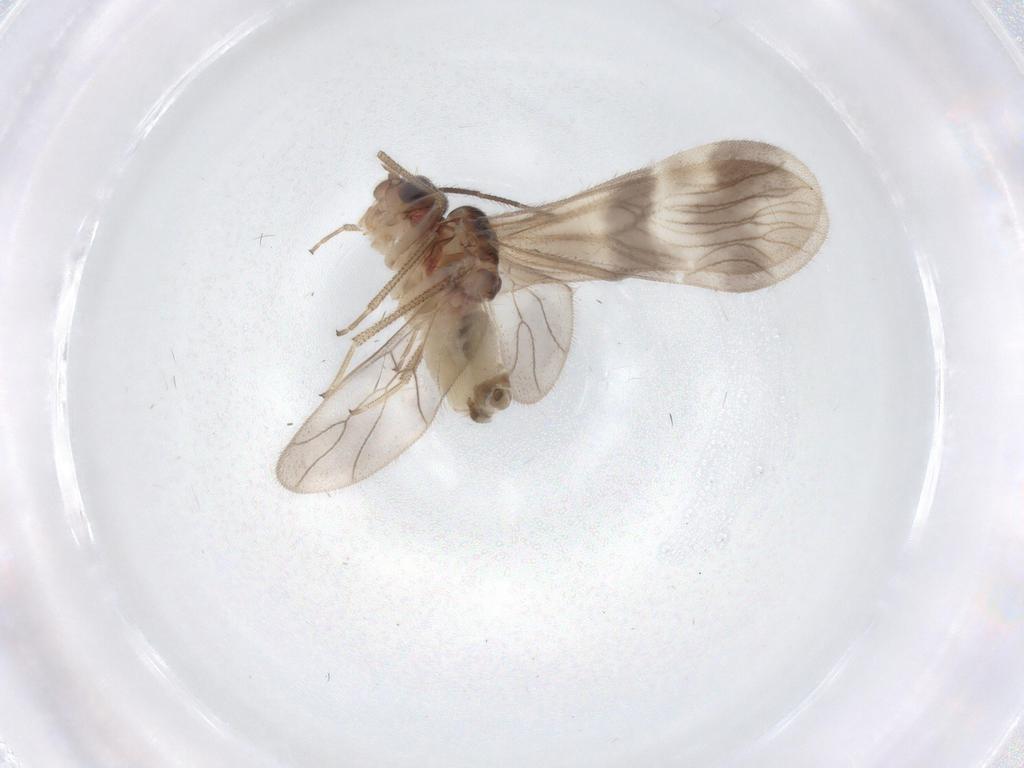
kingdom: Animalia
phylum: Arthropoda
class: Insecta
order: Psocodea
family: Amphipsocidae
